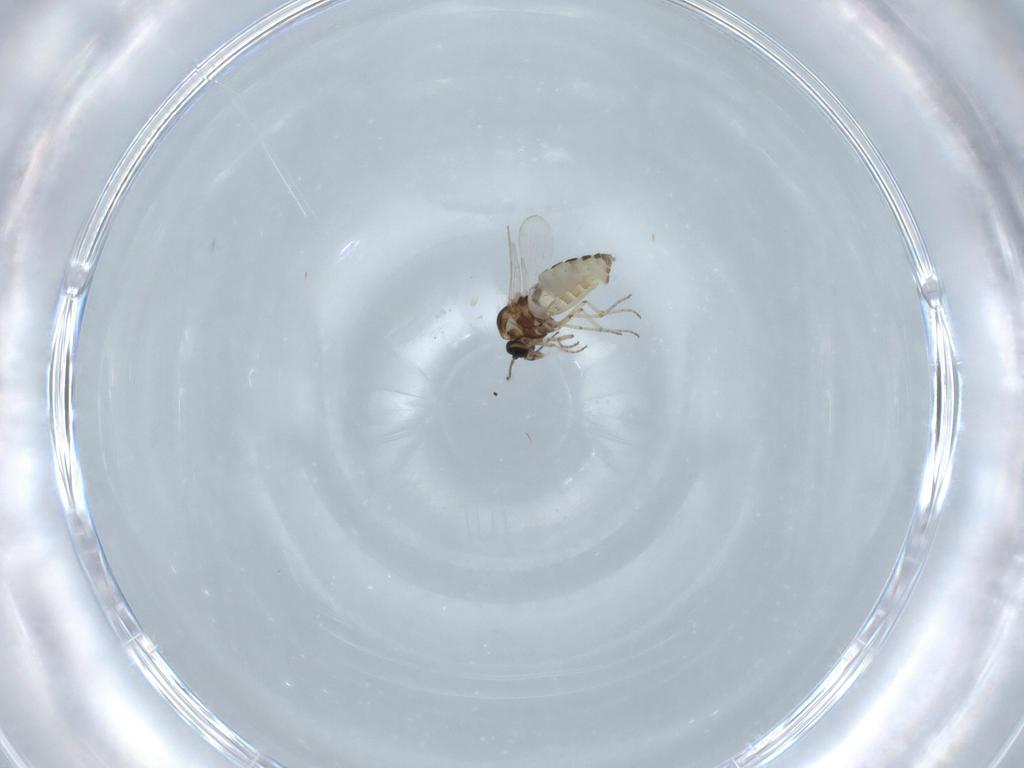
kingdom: Animalia
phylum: Arthropoda
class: Insecta
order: Diptera
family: Ceratopogonidae
